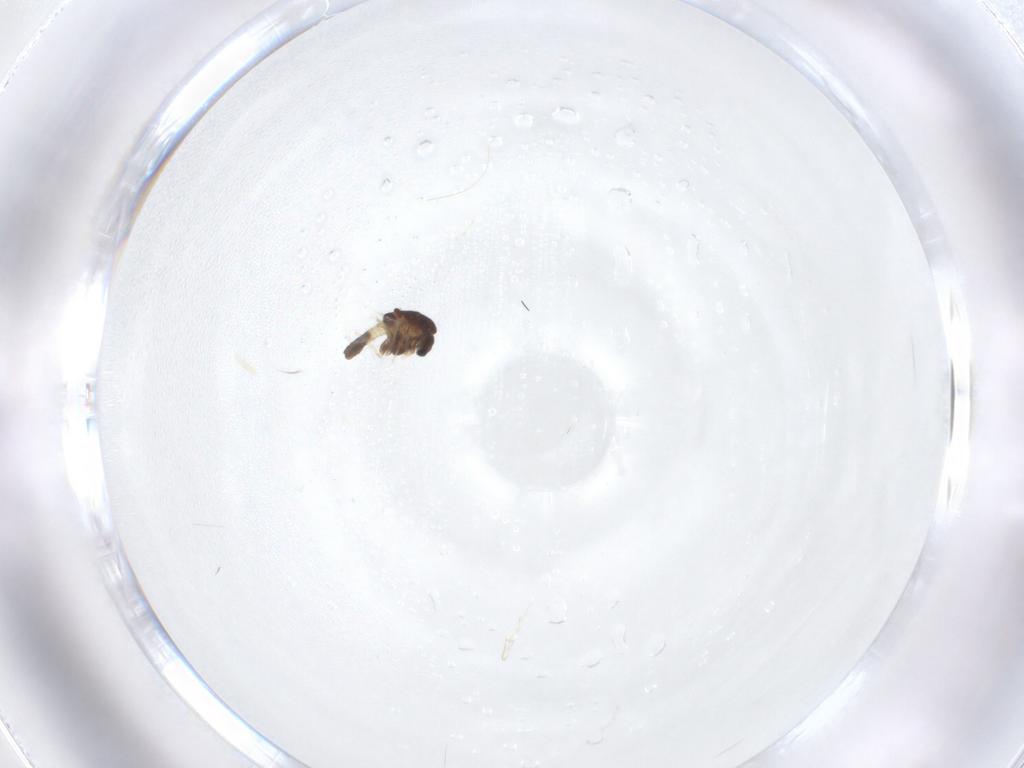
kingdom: Animalia
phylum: Arthropoda
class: Insecta
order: Diptera
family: Chironomidae
